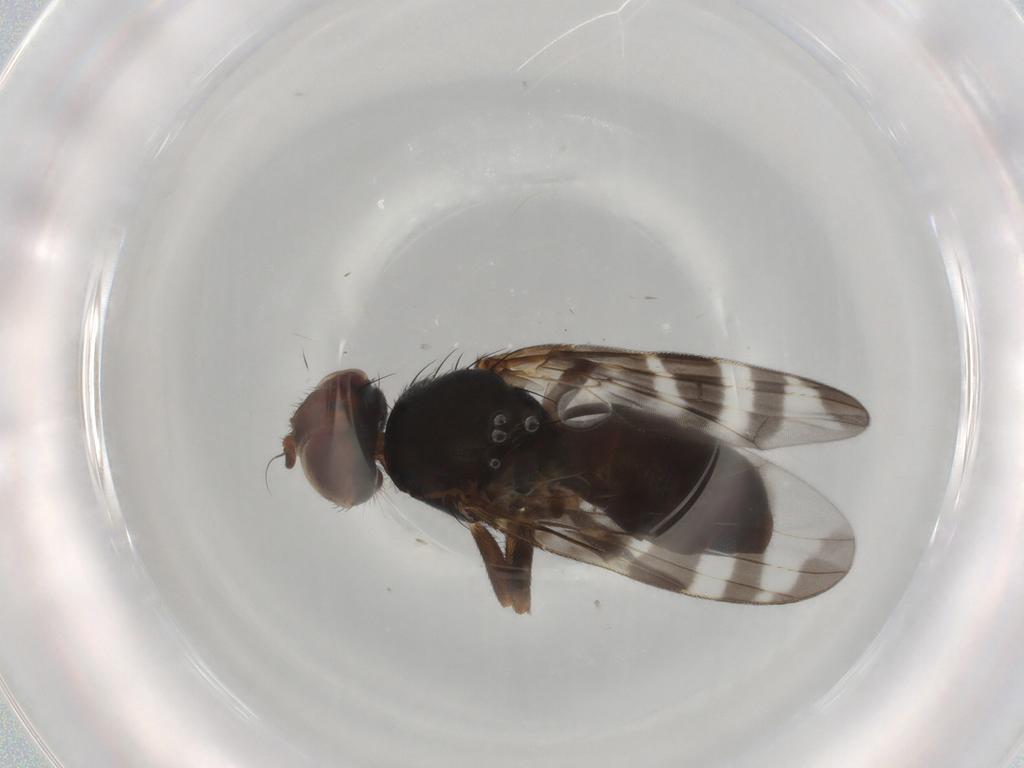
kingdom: Animalia
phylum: Arthropoda
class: Insecta
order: Diptera
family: Platystomatidae
